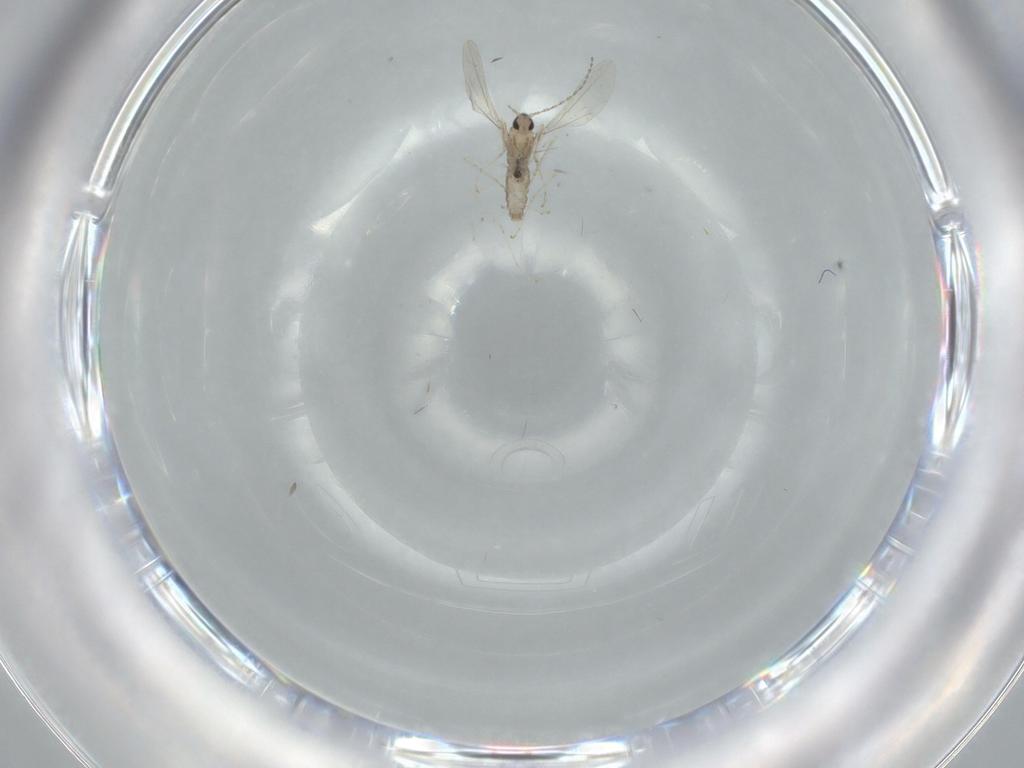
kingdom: Animalia
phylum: Arthropoda
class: Insecta
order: Diptera
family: Cecidomyiidae
